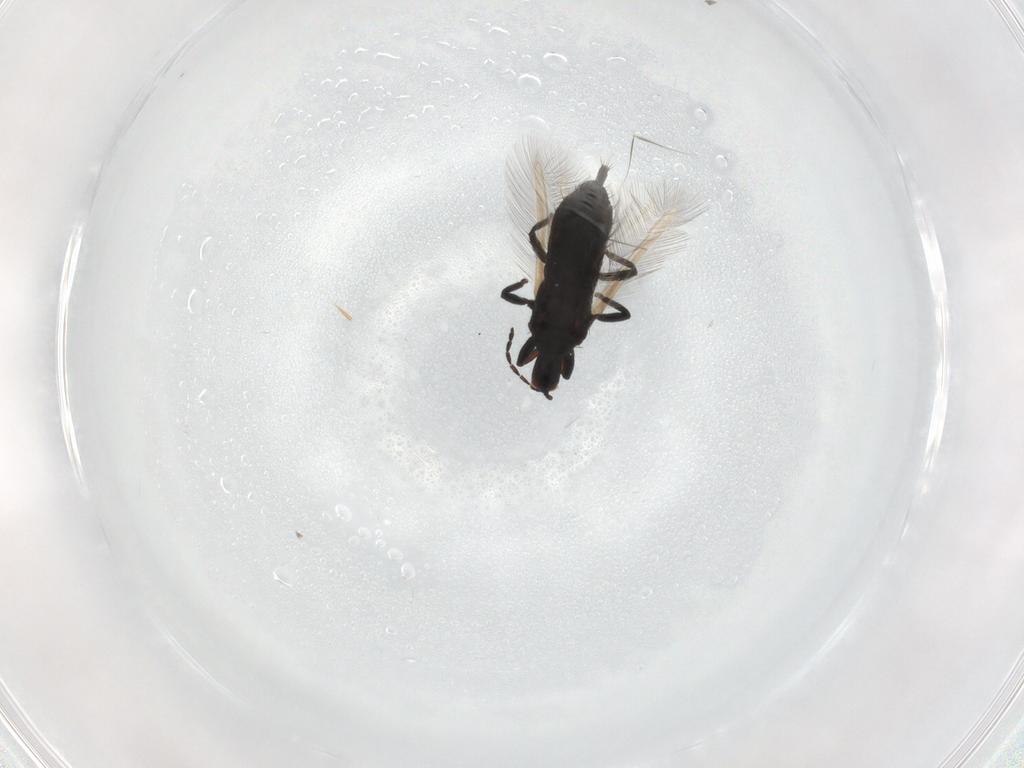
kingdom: Animalia
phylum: Arthropoda
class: Insecta
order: Thysanoptera
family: Phlaeothripidae
